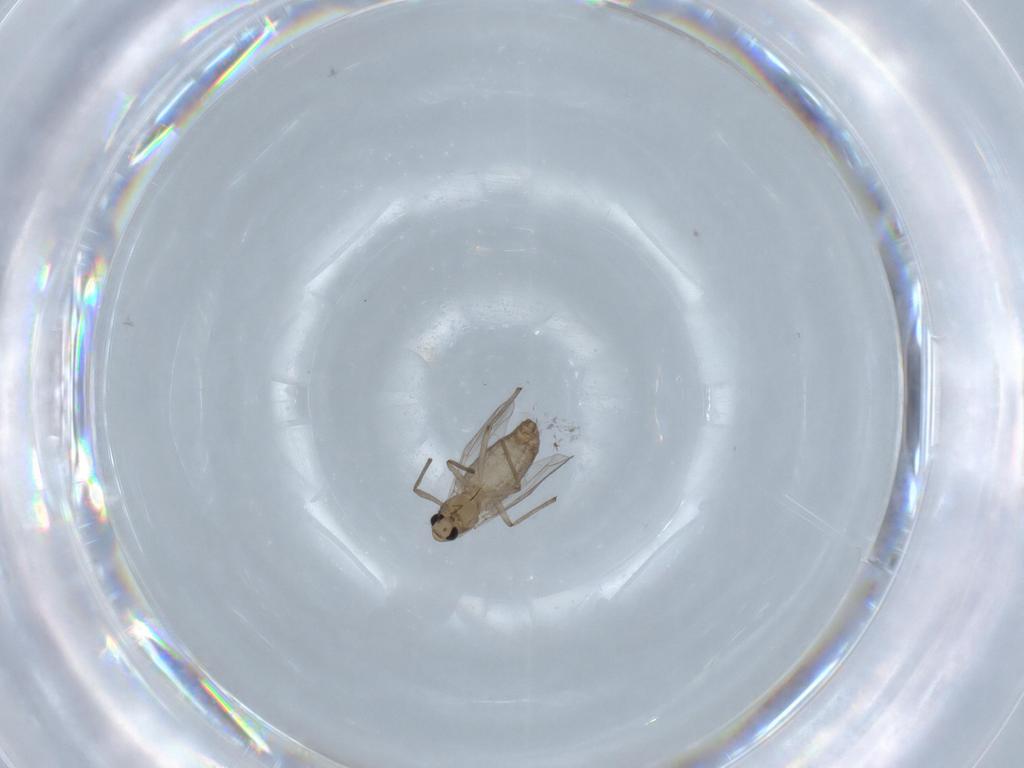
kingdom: Animalia
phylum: Arthropoda
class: Insecta
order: Diptera
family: Chironomidae
